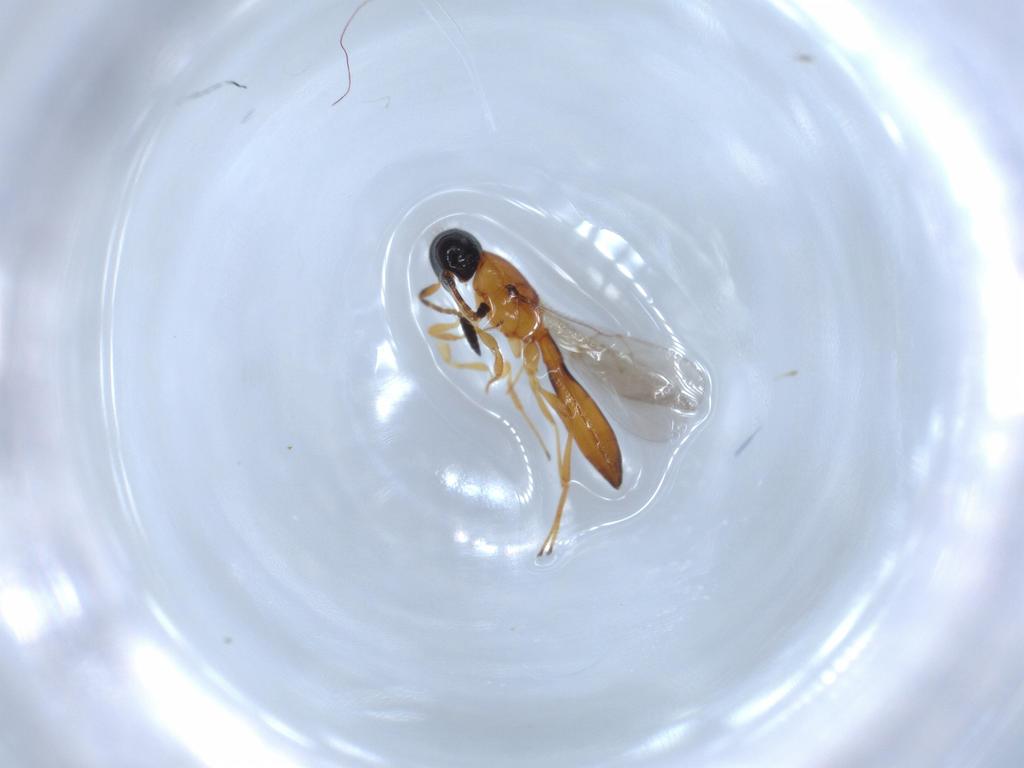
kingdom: Animalia
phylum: Arthropoda
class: Insecta
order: Hymenoptera
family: Scelionidae
